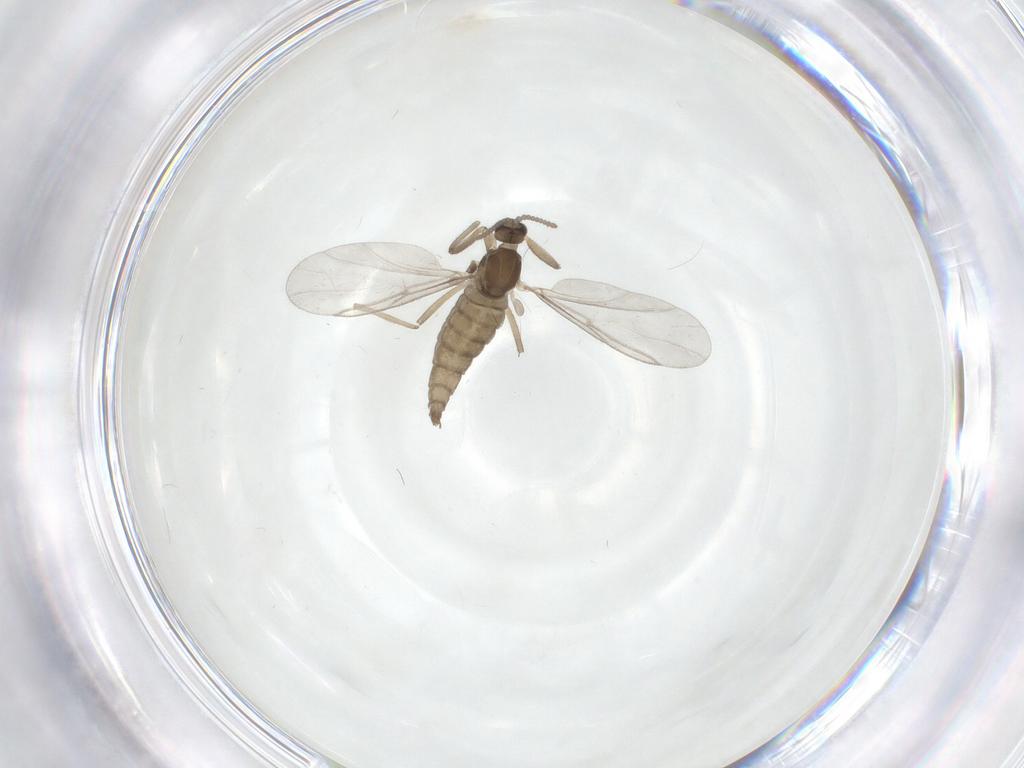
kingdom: Animalia
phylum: Arthropoda
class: Insecta
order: Diptera
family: Cecidomyiidae
